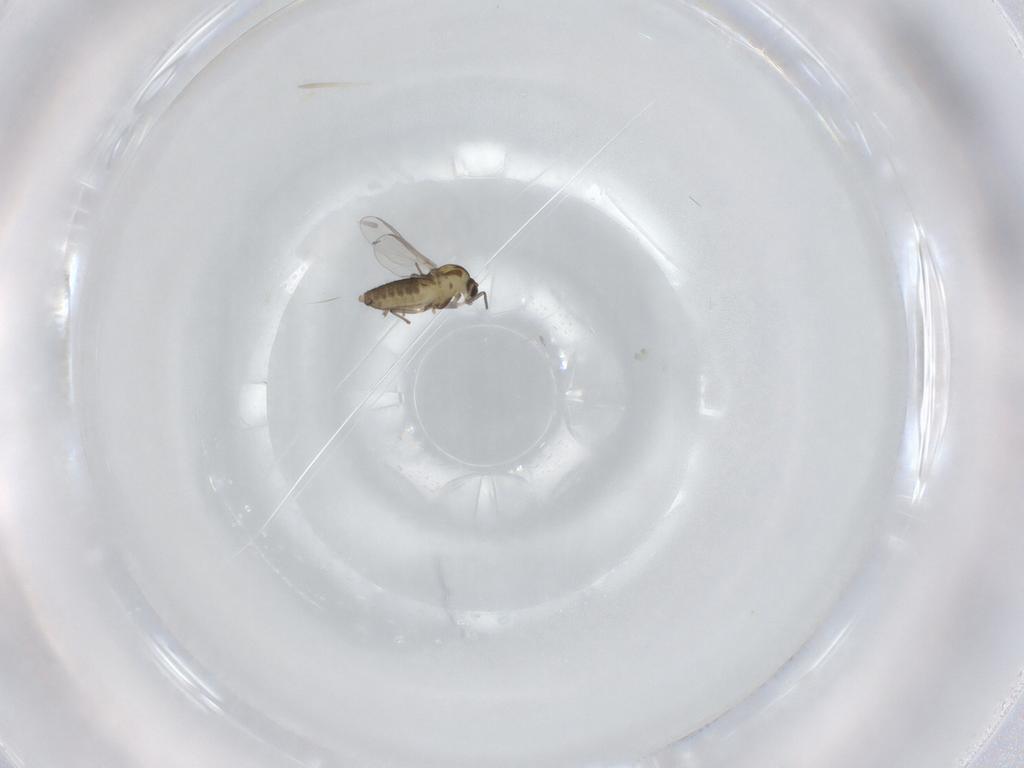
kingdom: Animalia
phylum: Arthropoda
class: Insecta
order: Diptera
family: Chironomidae
